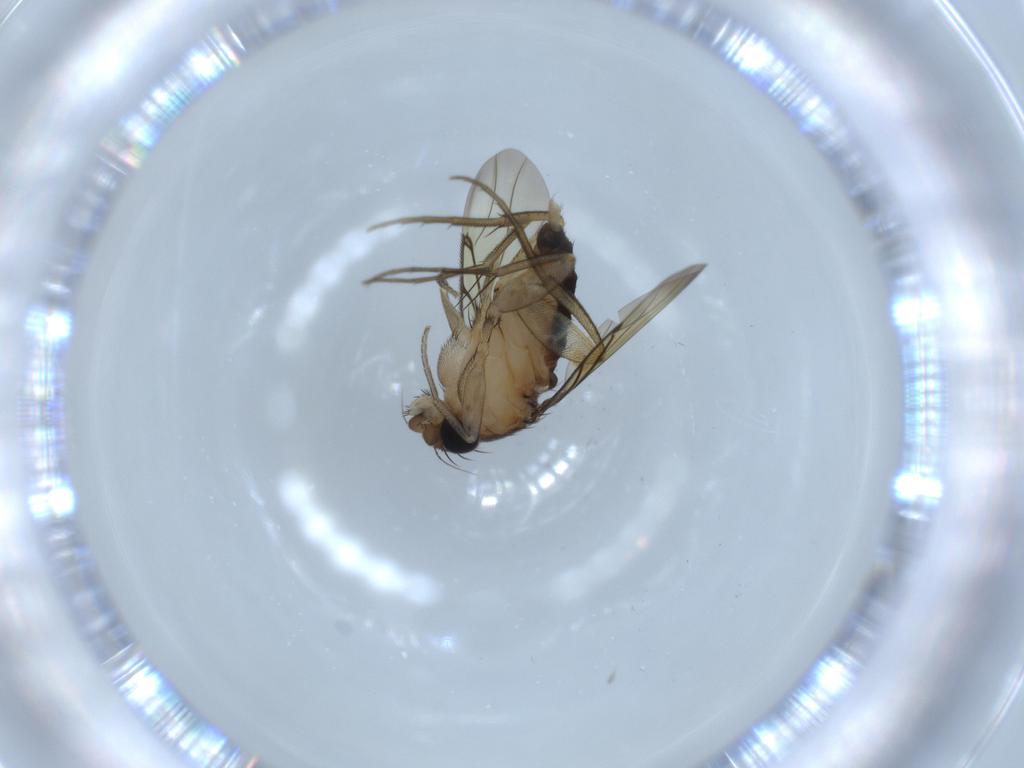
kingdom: Animalia
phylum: Arthropoda
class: Insecta
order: Diptera
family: Phoridae
